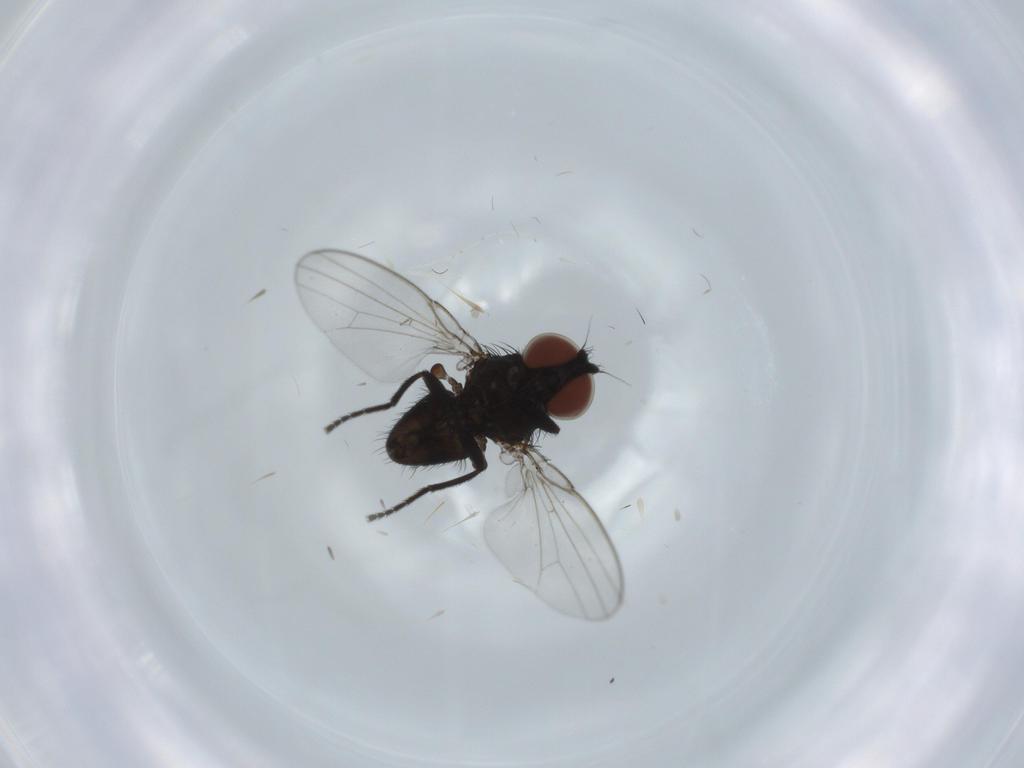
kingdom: Animalia
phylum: Arthropoda
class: Insecta
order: Diptera
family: Milichiidae
